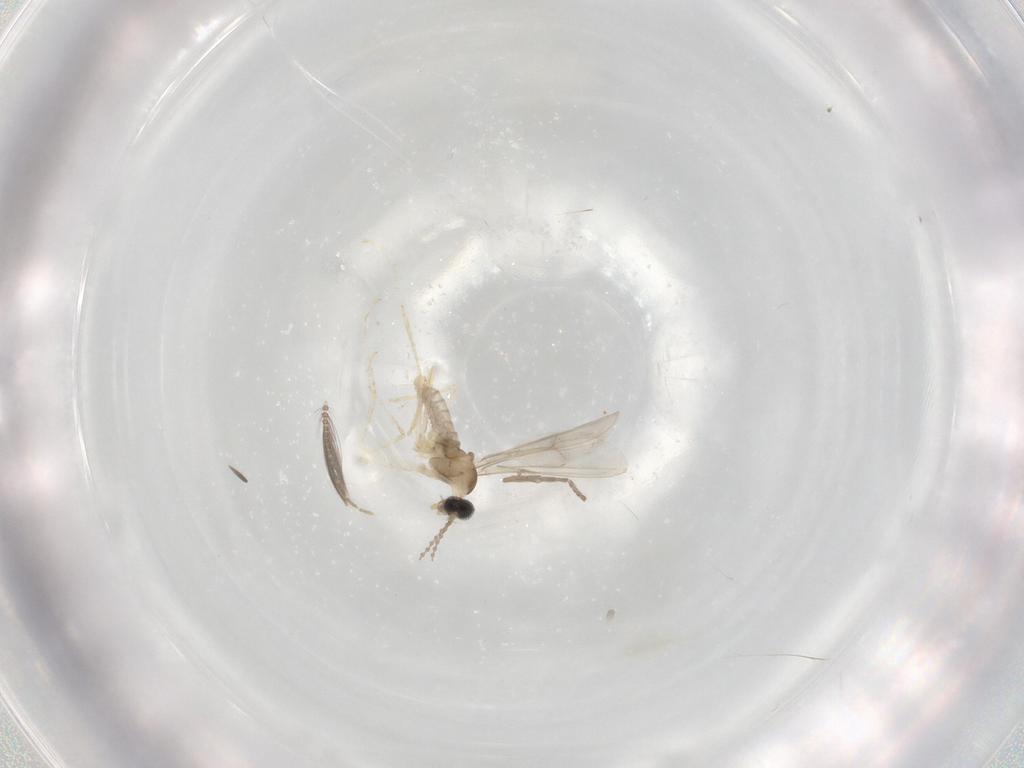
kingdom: Animalia
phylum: Arthropoda
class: Insecta
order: Diptera
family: Cecidomyiidae
